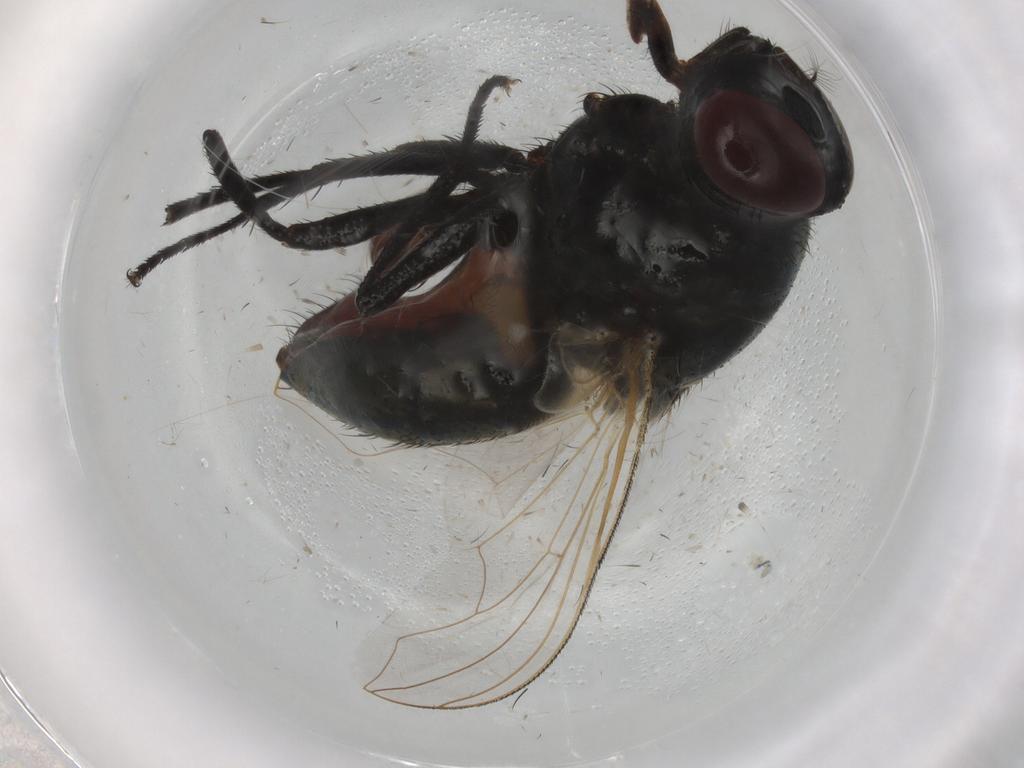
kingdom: Animalia
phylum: Arthropoda
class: Insecta
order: Diptera
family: Muscidae
